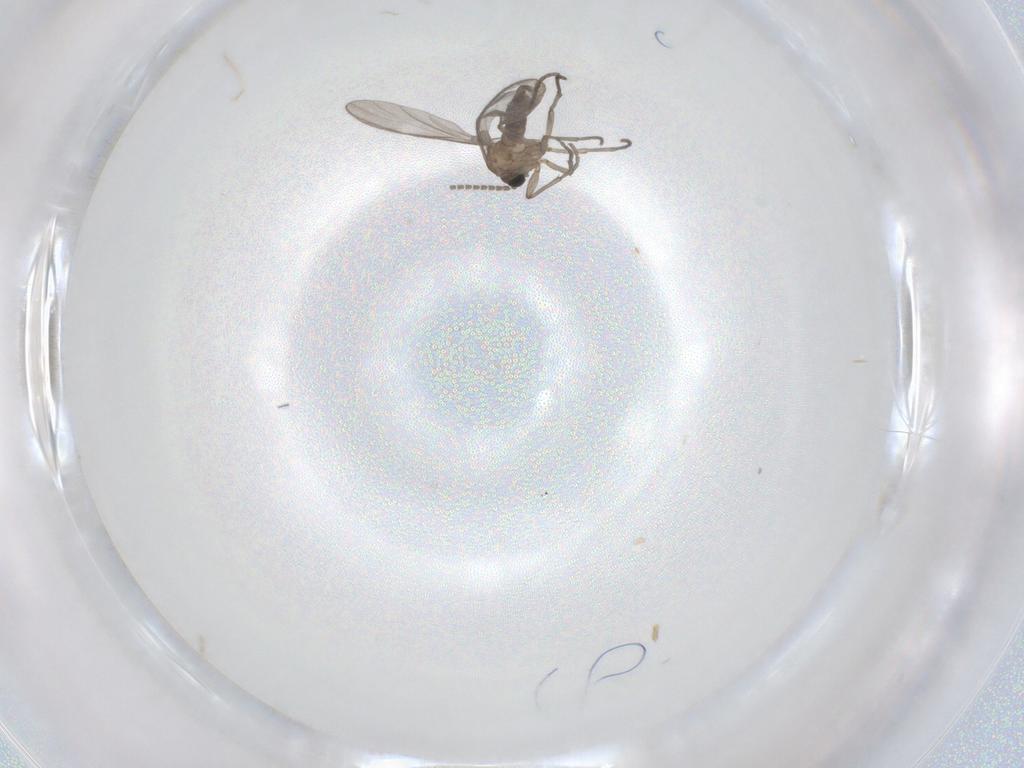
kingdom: Animalia
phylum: Arthropoda
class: Insecta
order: Diptera
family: Sciaridae
